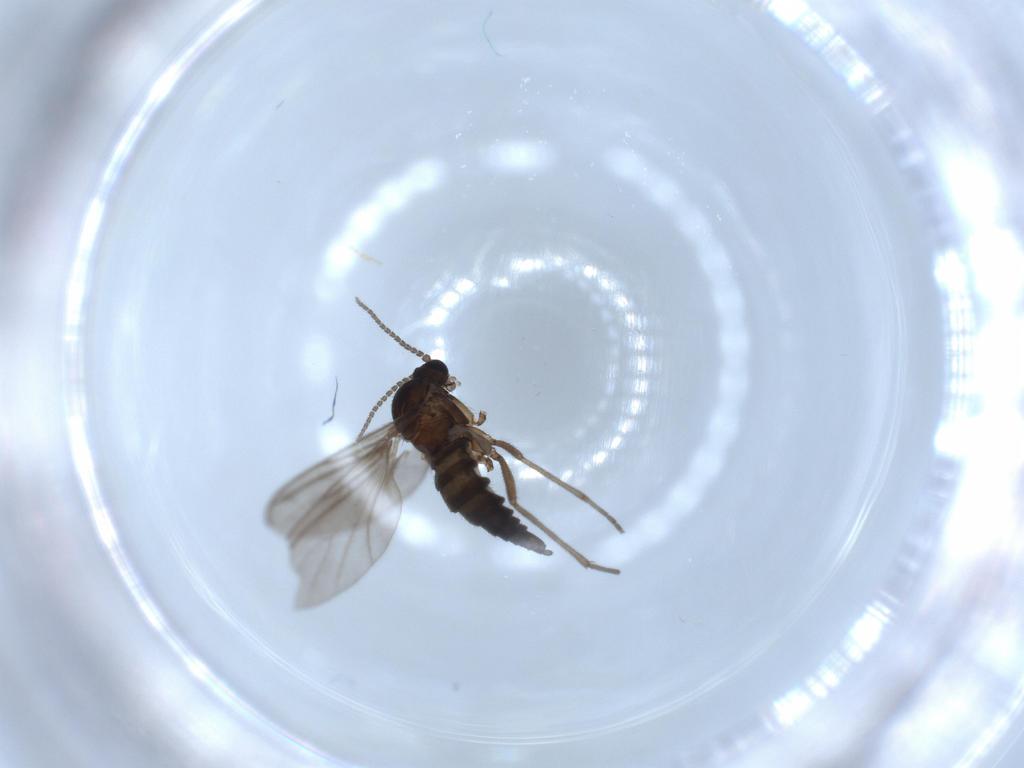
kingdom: Animalia
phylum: Arthropoda
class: Insecta
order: Diptera
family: Sciaridae
